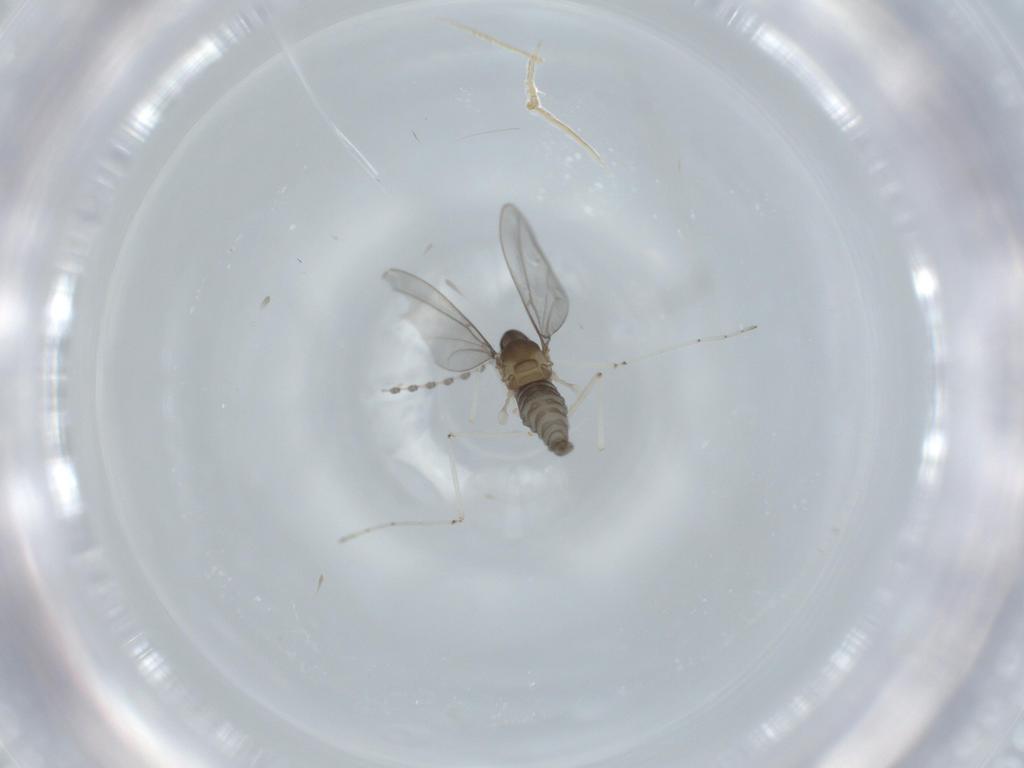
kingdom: Animalia
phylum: Arthropoda
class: Insecta
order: Diptera
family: Cecidomyiidae
